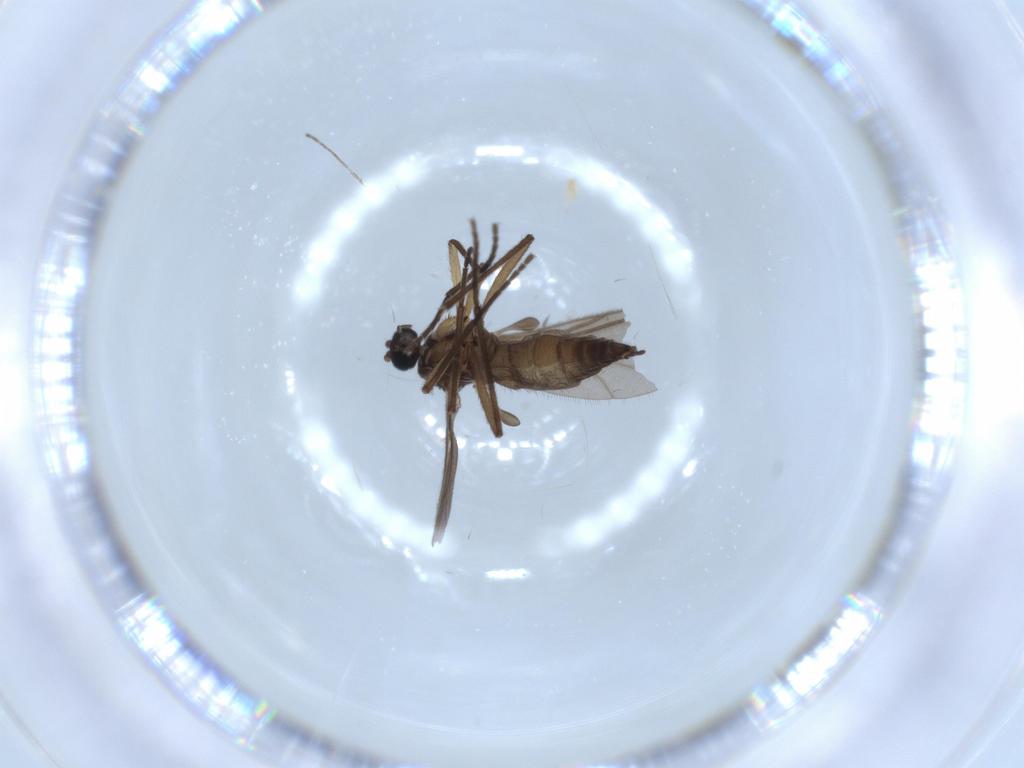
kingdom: Animalia
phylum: Arthropoda
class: Insecta
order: Diptera
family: Sciaridae
